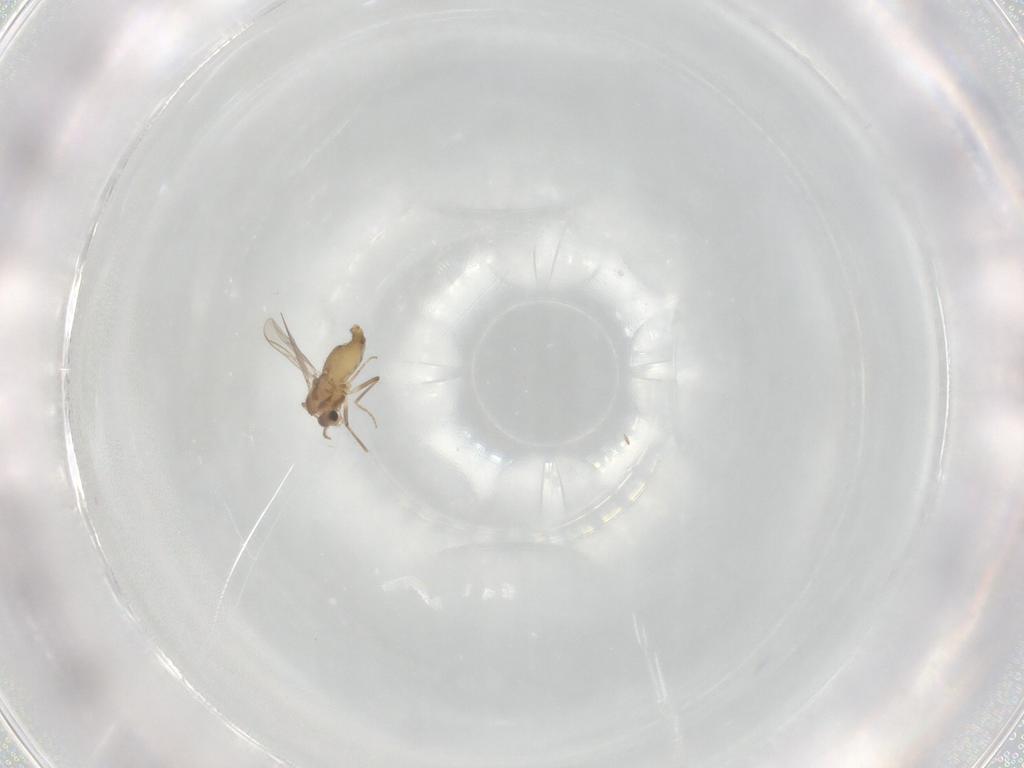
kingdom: Animalia
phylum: Arthropoda
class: Insecta
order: Diptera
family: Chironomidae
